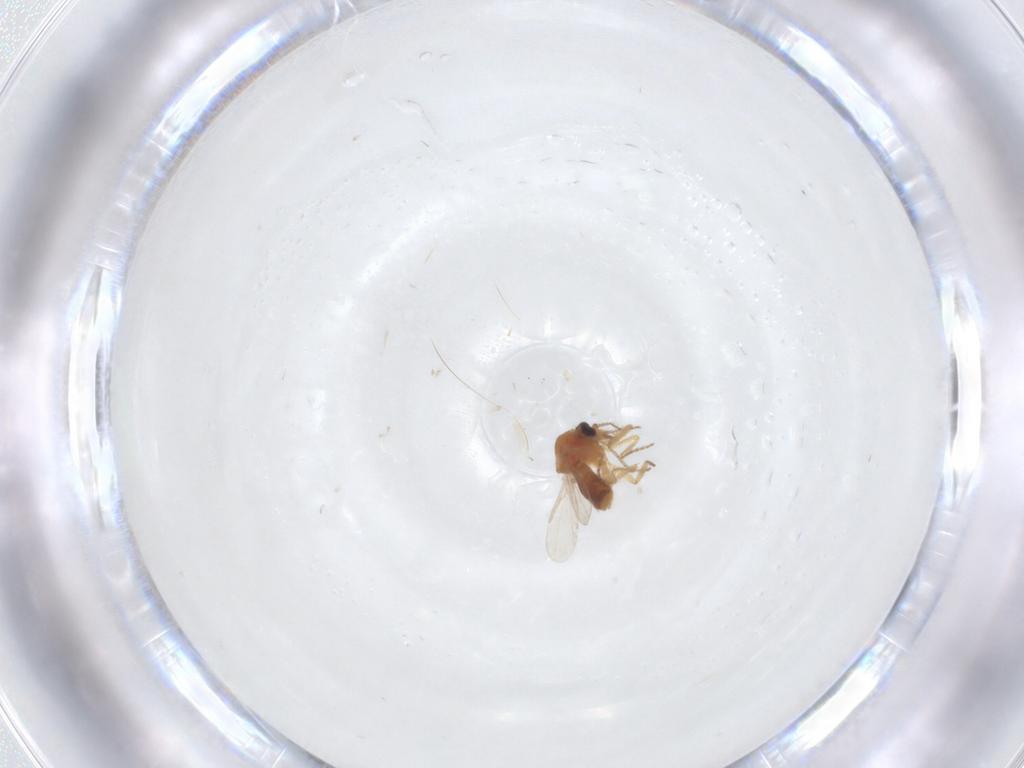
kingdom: Animalia
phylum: Arthropoda
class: Insecta
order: Diptera
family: Ceratopogonidae
